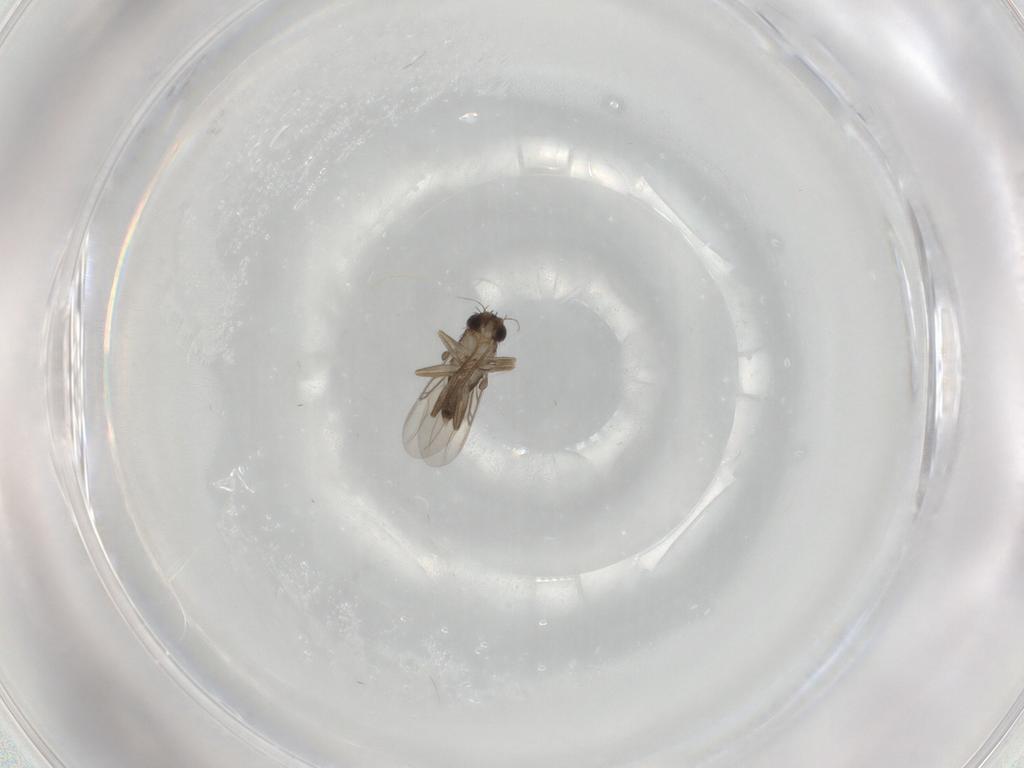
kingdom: Animalia
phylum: Arthropoda
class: Insecta
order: Diptera
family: Phoridae
